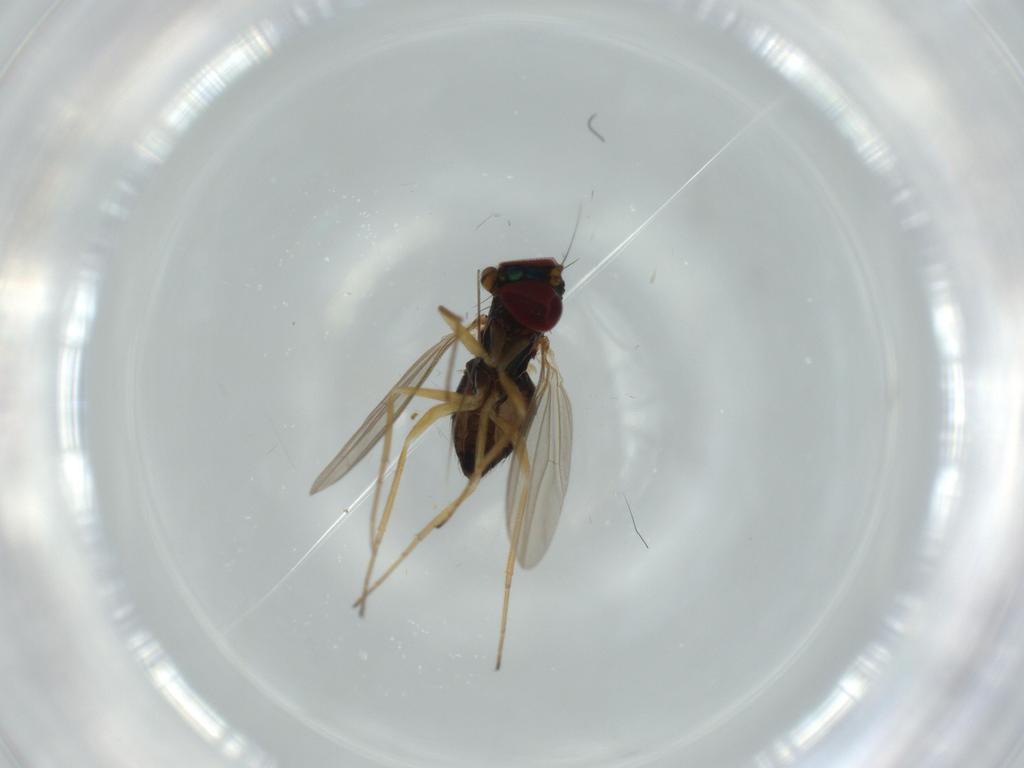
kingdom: Animalia
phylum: Arthropoda
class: Insecta
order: Diptera
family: Dolichopodidae
